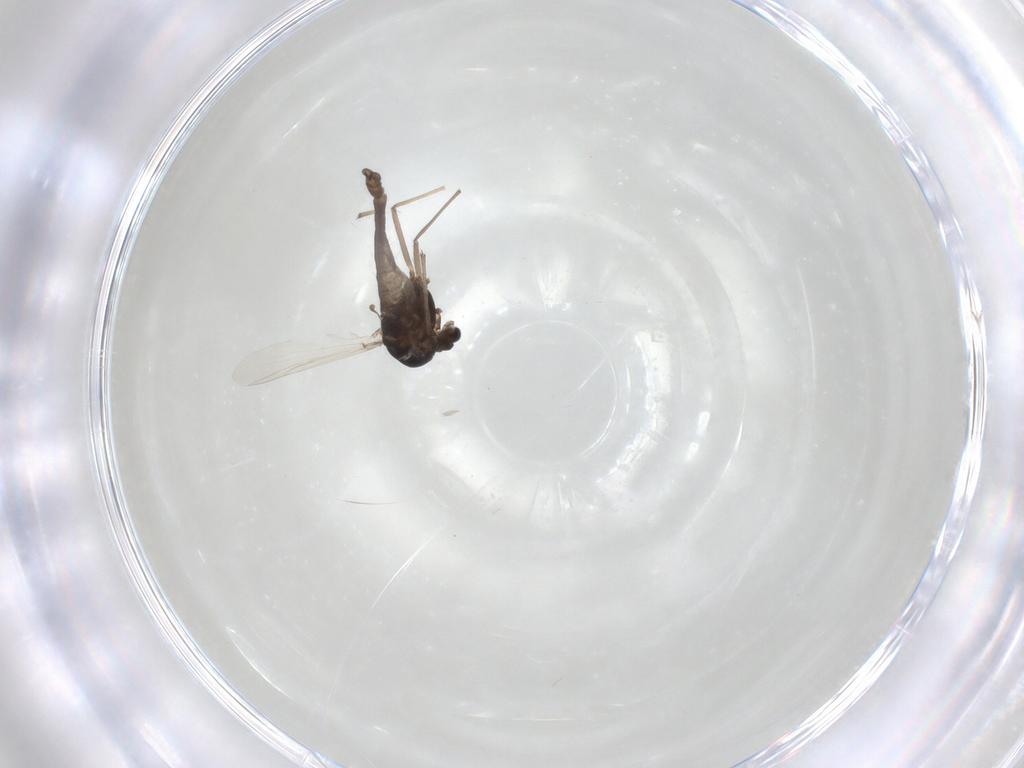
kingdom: Animalia
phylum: Arthropoda
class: Insecta
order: Diptera
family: Chironomidae
